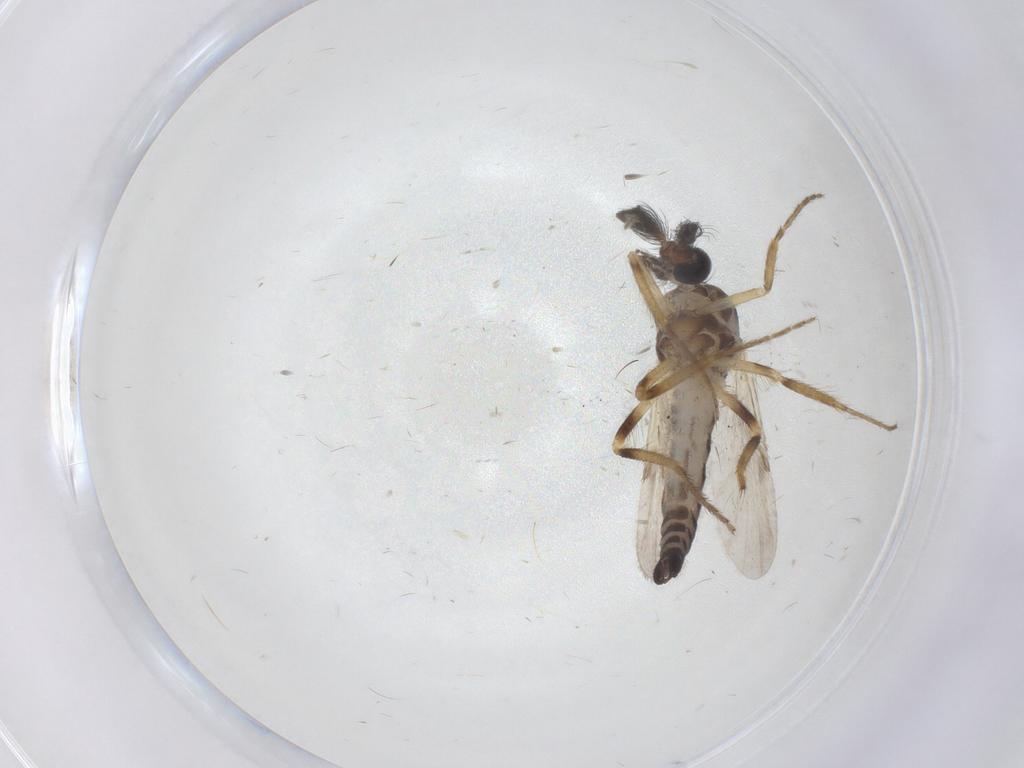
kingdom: Animalia
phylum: Arthropoda
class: Insecta
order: Diptera
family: Ceratopogonidae
